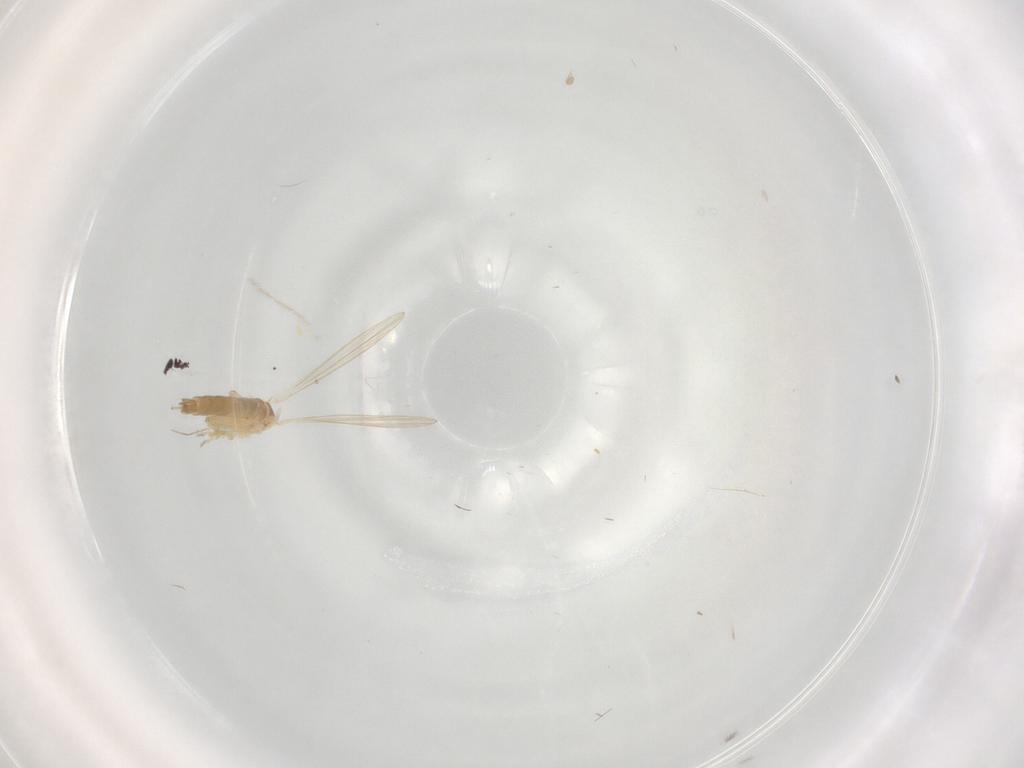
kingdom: Animalia
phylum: Arthropoda
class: Insecta
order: Diptera
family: Psychodidae
